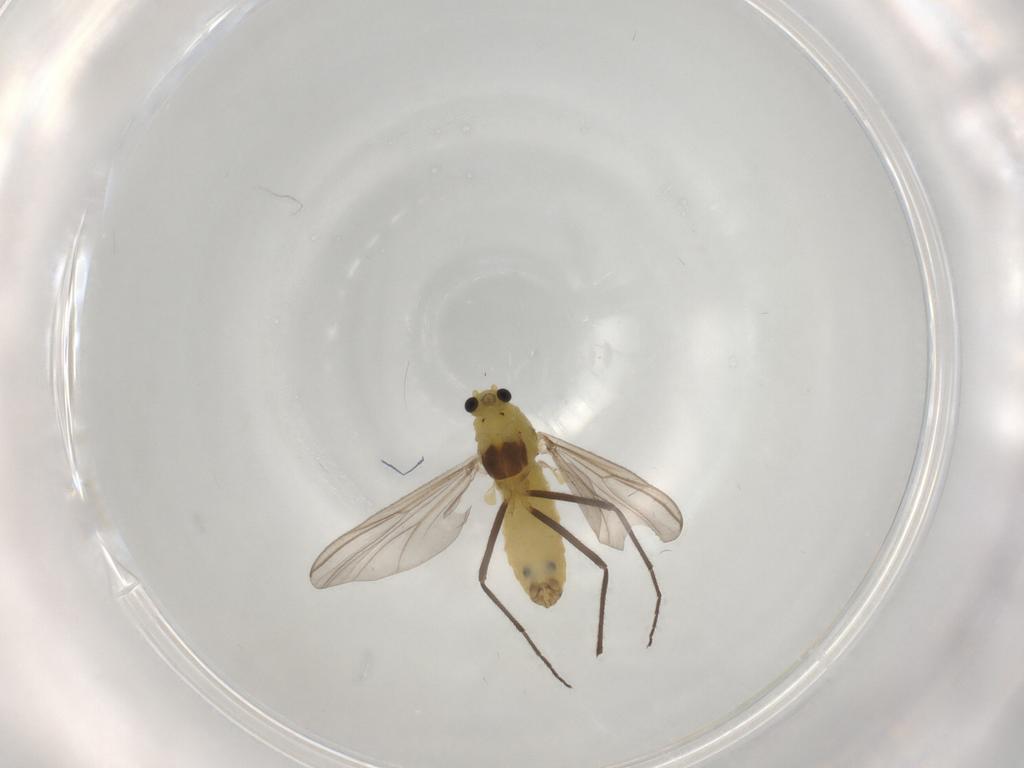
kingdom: Animalia
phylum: Arthropoda
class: Insecta
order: Diptera
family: Chironomidae
